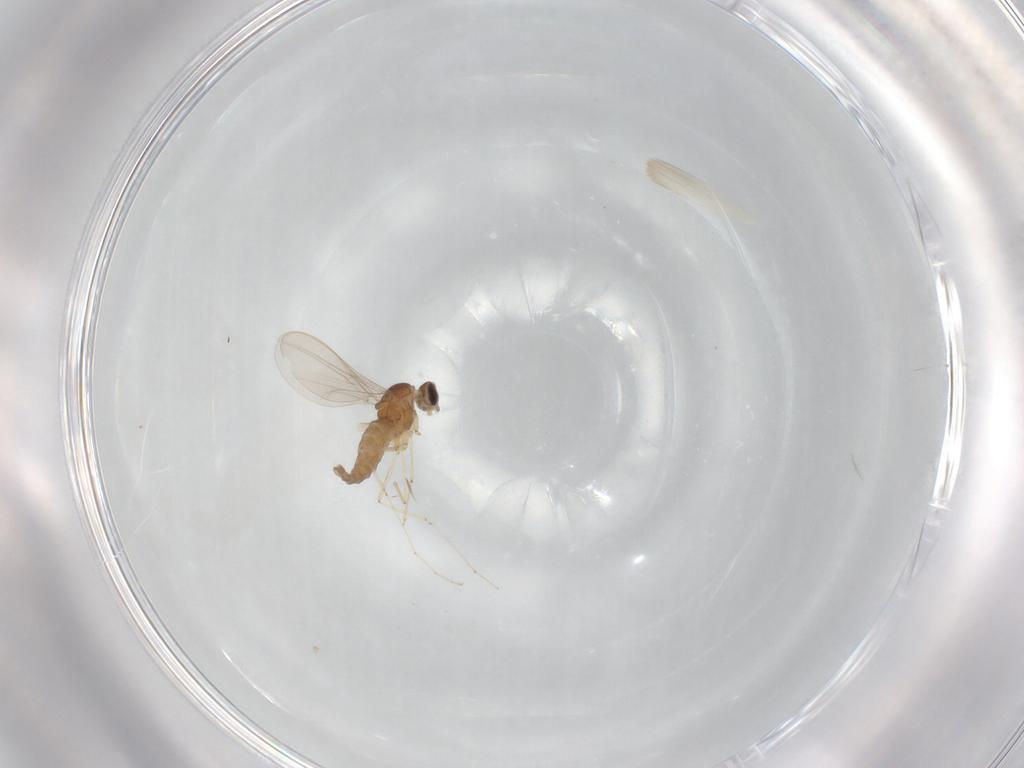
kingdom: Animalia
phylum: Arthropoda
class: Insecta
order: Diptera
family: Cecidomyiidae
